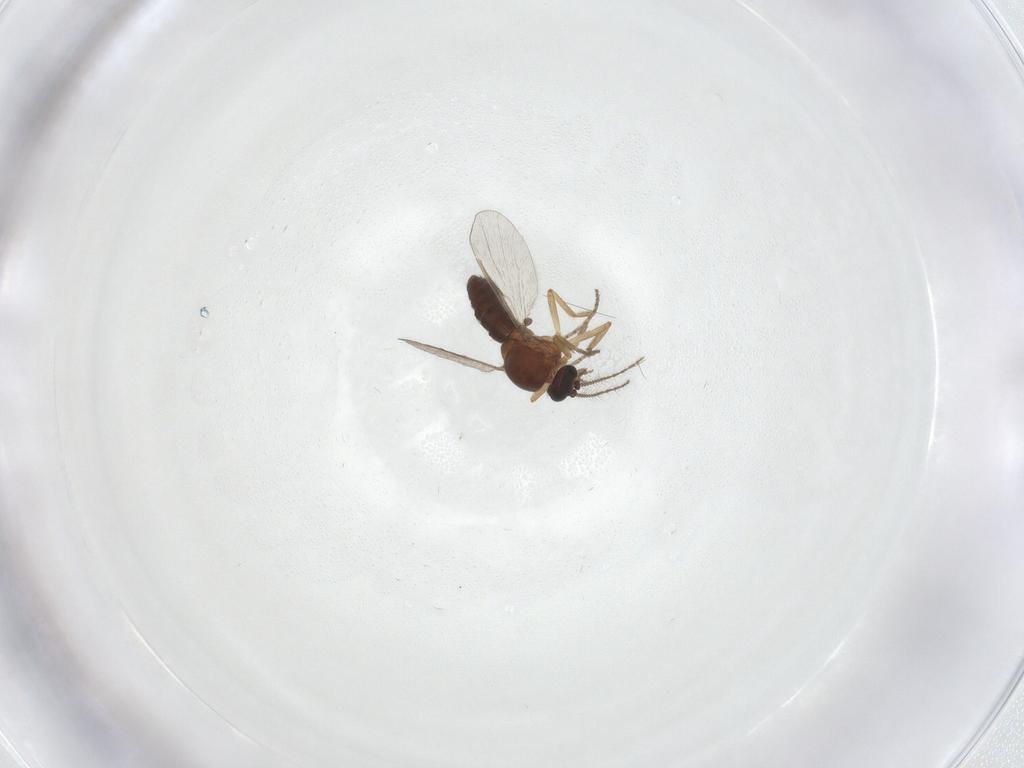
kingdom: Animalia
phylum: Arthropoda
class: Insecta
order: Diptera
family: Ceratopogonidae
